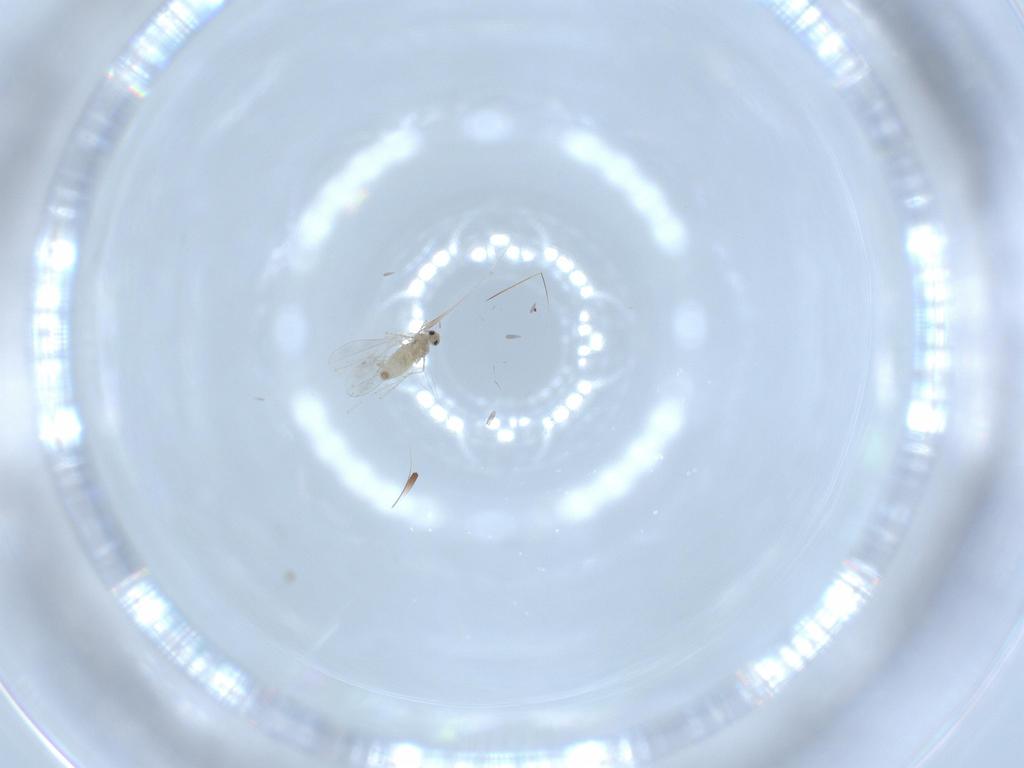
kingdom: Animalia
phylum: Arthropoda
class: Insecta
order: Diptera
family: Cecidomyiidae
